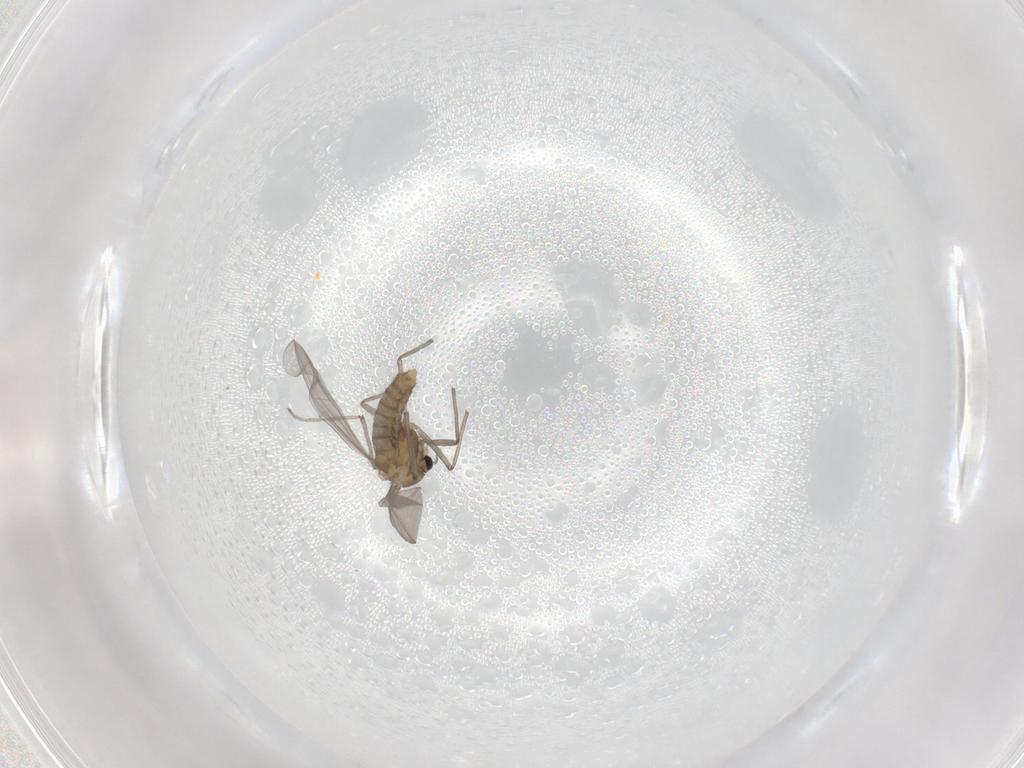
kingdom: Animalia
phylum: Arthropoda
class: Insecta
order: Diptera
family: Chironomidae
